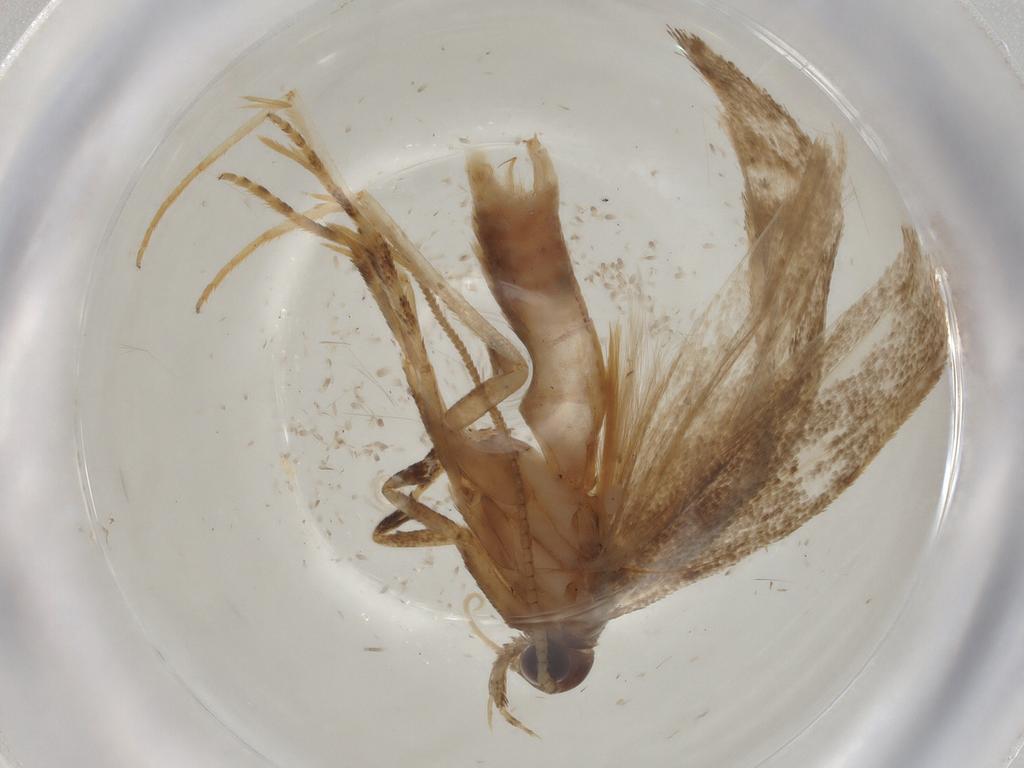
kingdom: Animalia
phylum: Arthropoda
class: Insecta
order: Lepidoptera
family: Gelechiidae
